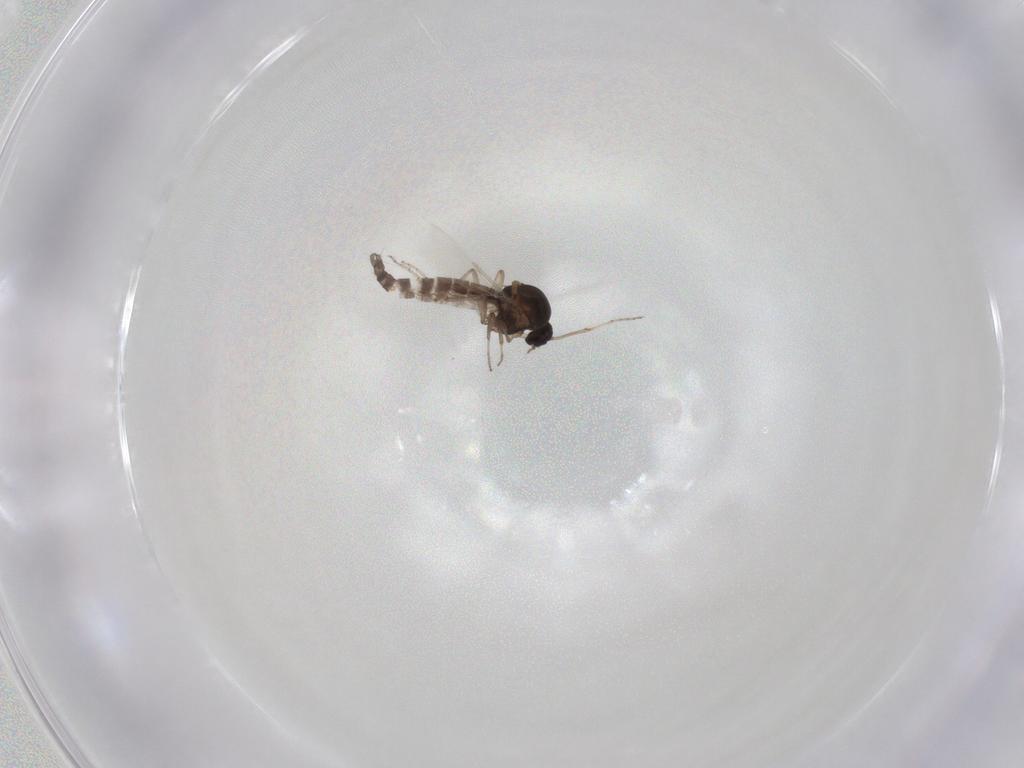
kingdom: Animalia
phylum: Arthropoda
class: Insecta
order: Diptera
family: Ceratopogonidae
